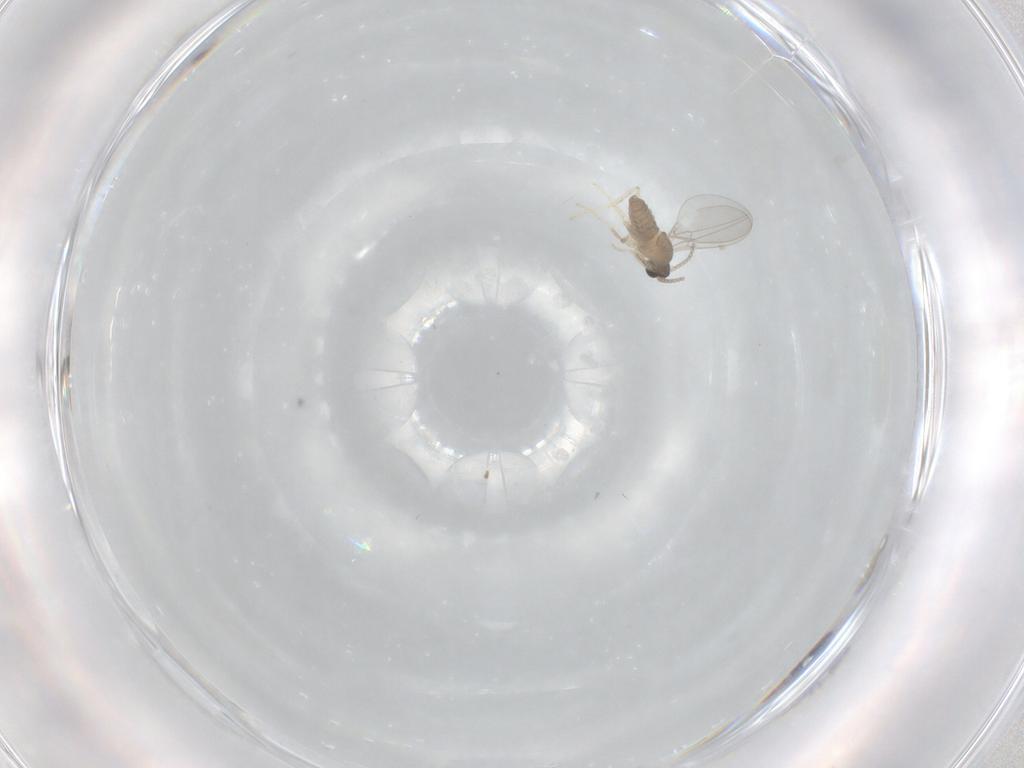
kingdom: Animalia
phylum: Arthropoda
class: Insecta
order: Diptera
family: Cecidomyiidae
